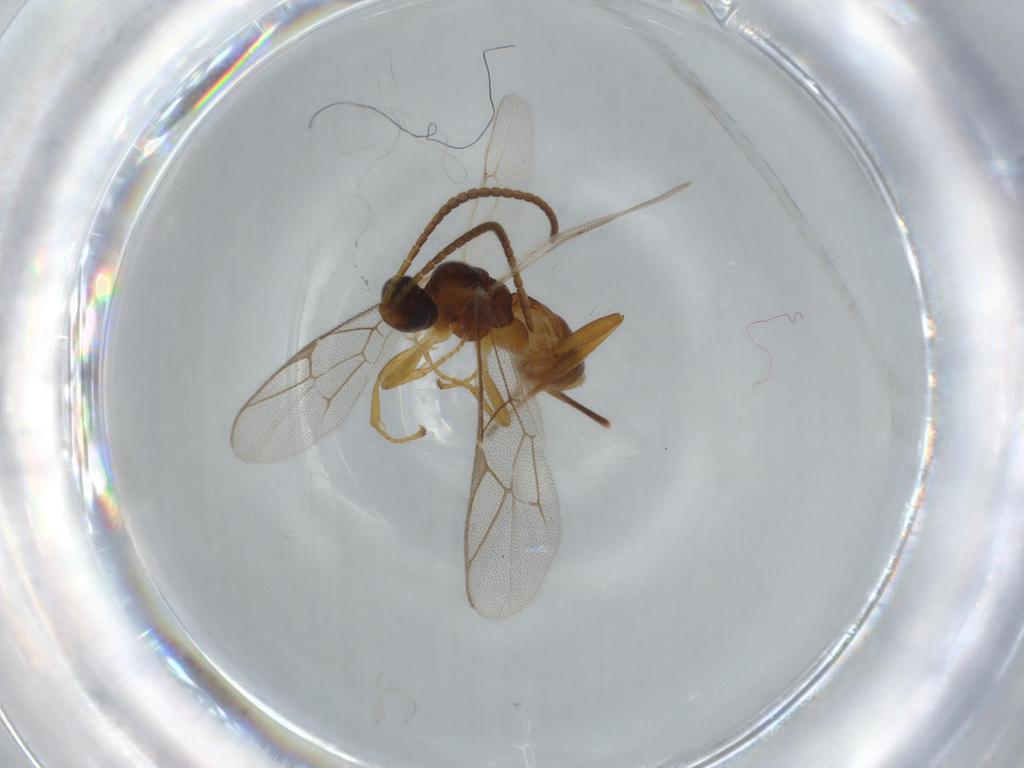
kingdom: Animalia
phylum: Arthropoda
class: Insecta
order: Hymenoptera
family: Ichneumonidae
